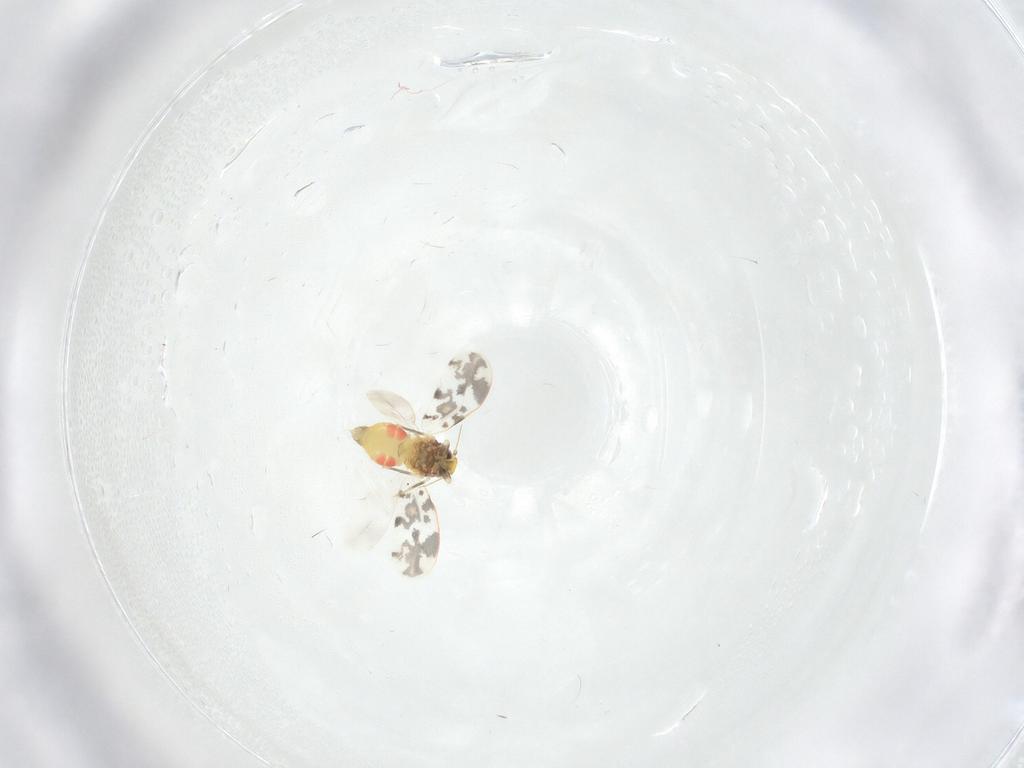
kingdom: Animalia
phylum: Arthropoda
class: Insecta
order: Hemiptera
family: Aleyrodidae
